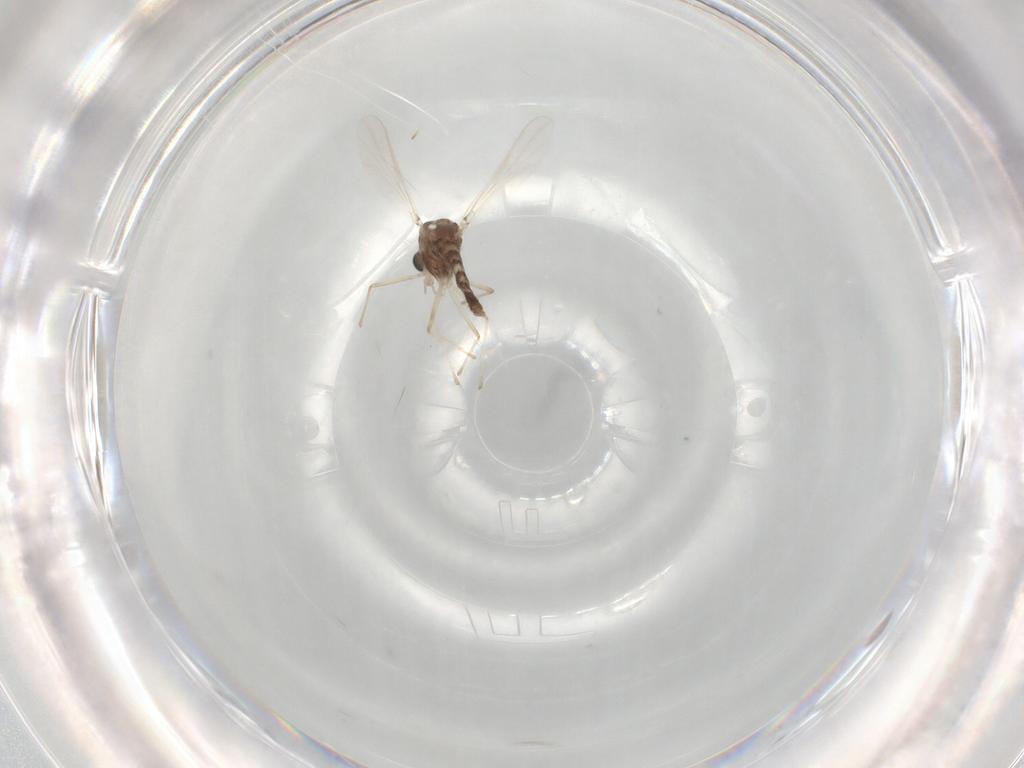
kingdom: Animalia
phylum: Arthropoda
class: Insecta
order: Diptera
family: Chironomidae
